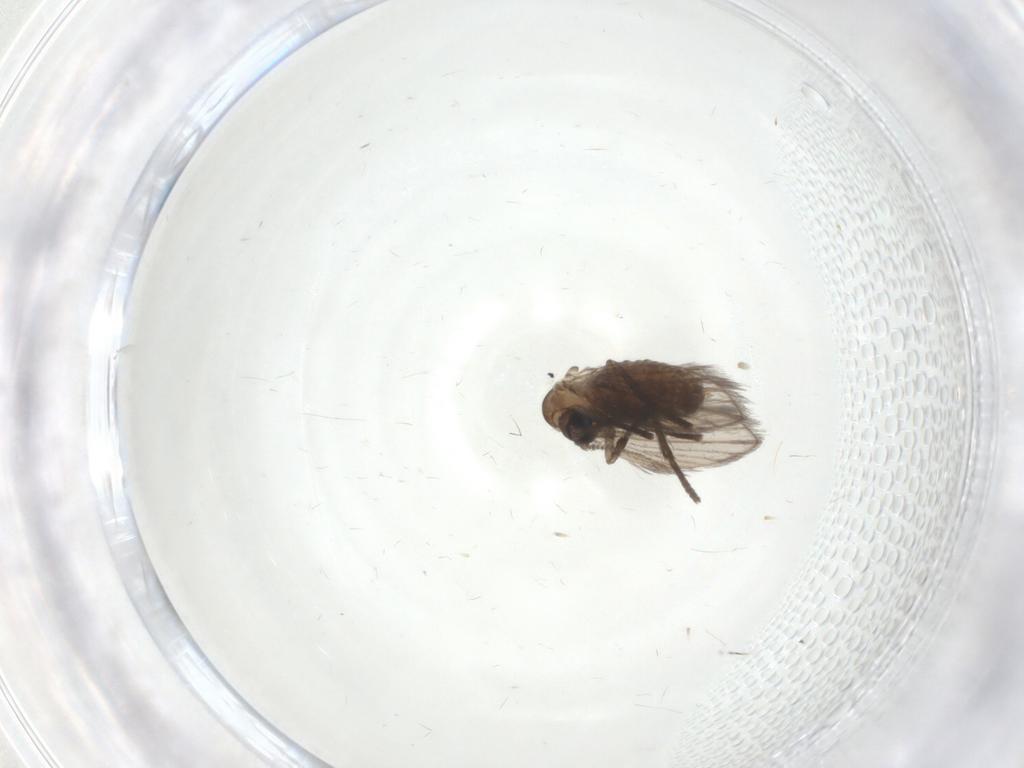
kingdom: Animalia
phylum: Arthropoda
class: Insecta
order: Diptera
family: Psychodidae
